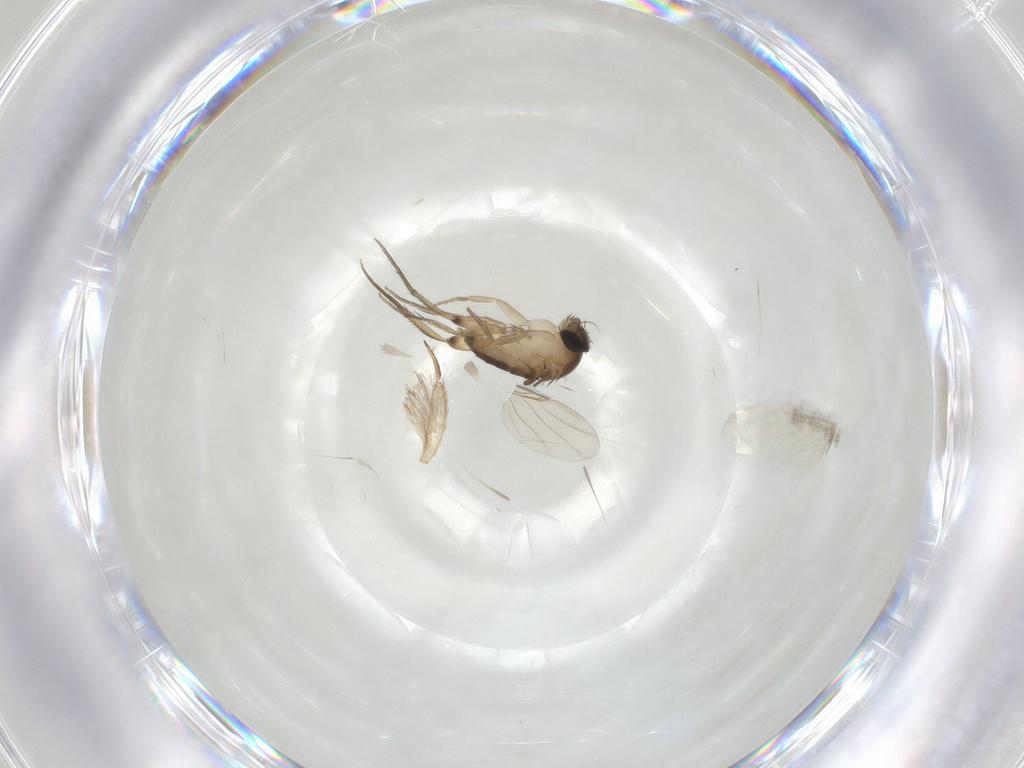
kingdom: Animalia
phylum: Arthropoda
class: Insecta
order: Diptera
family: Phoridae
